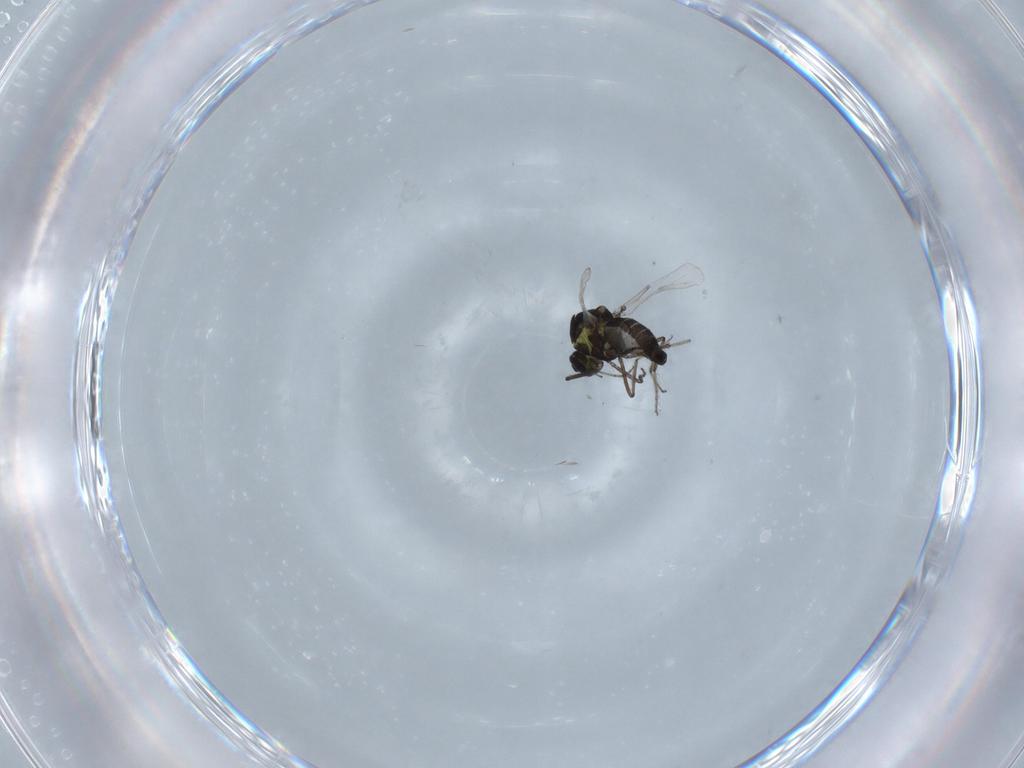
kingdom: Animalia
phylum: Arthropoda
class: Insecta
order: Diptera
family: Ceratopogonidae
